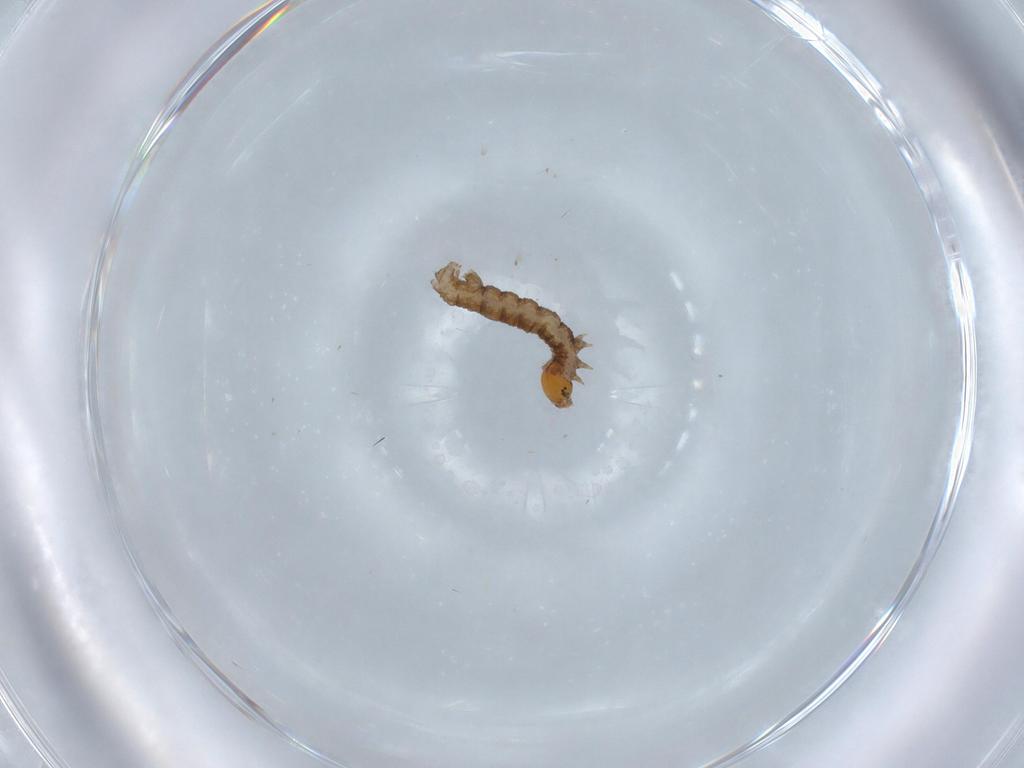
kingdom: Animalia
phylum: Arthropoda
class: Insecta
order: Lepidoptera
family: Geometridae
